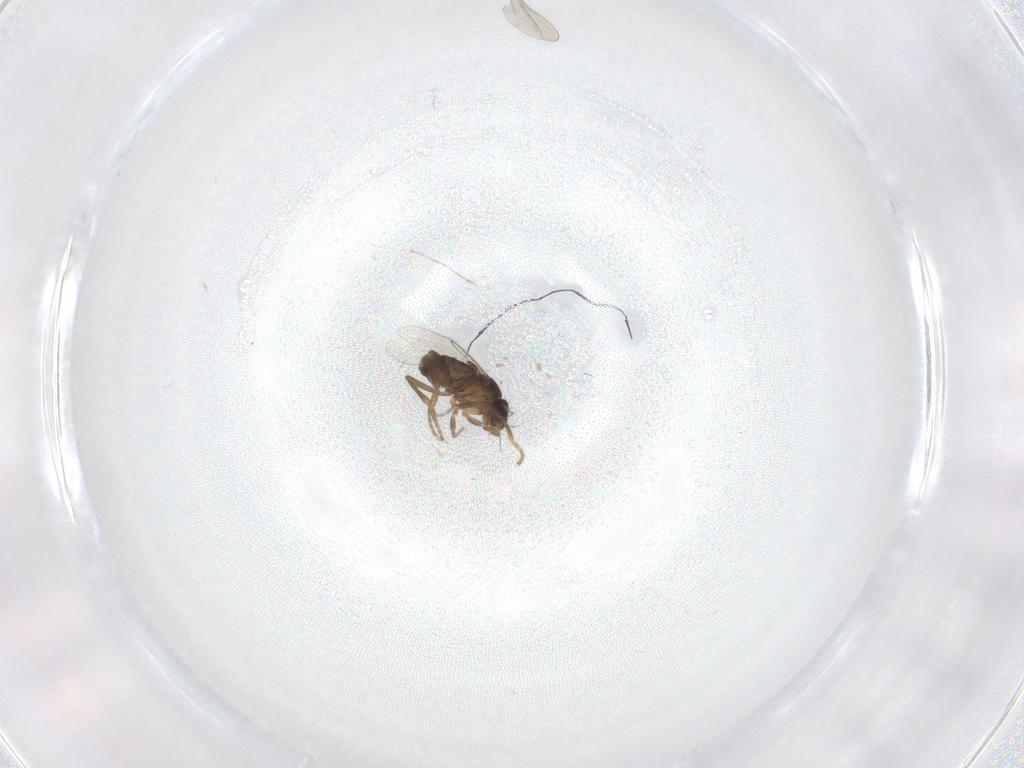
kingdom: Animalia
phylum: Arthropoda
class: Insecta
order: Diptera
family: Phoridae
